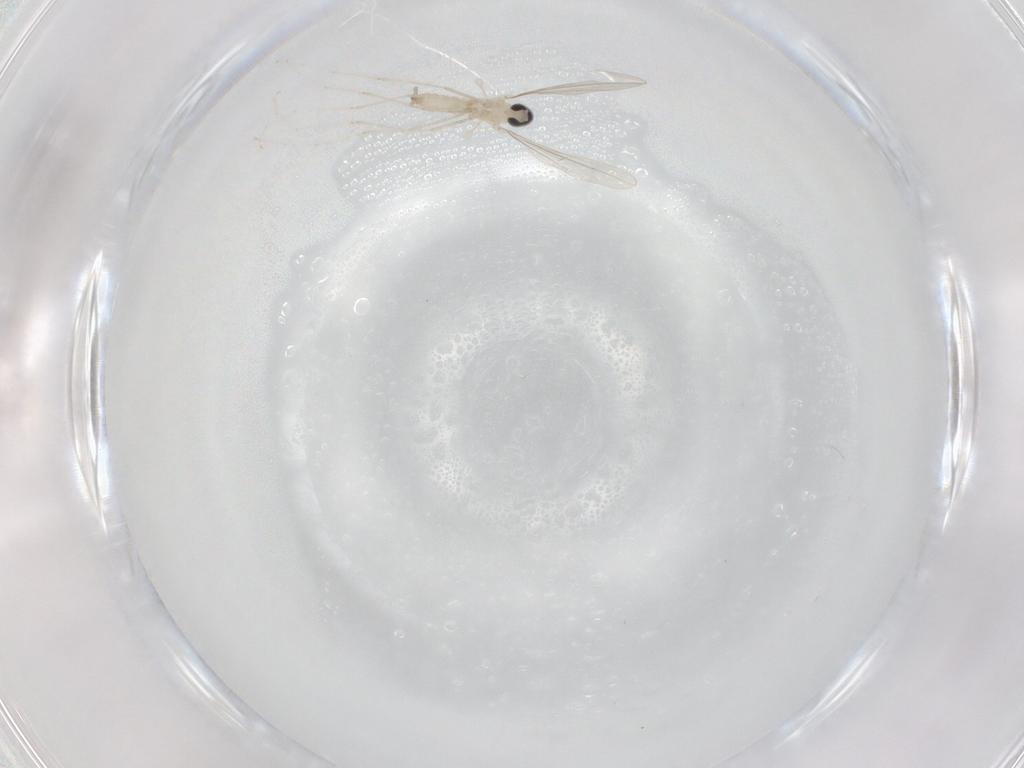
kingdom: Animalia
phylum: Arthropoda
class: Insecta
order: Diptera
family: Cecidomyiidae
